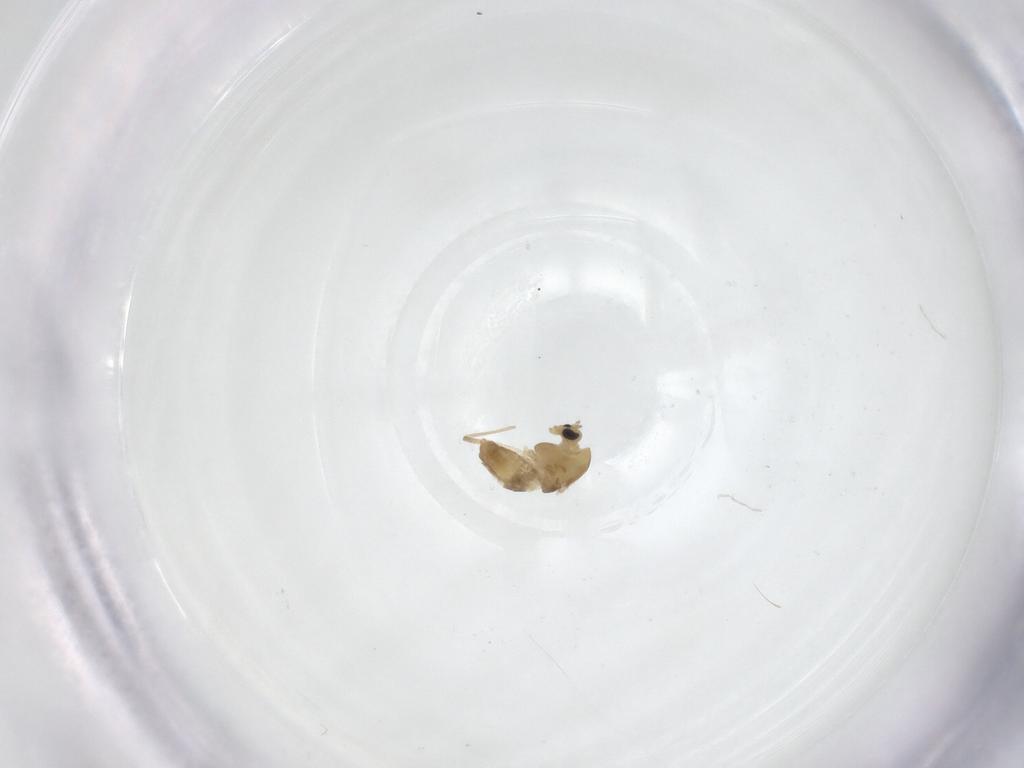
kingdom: Animalia
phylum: Arthropoda
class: Insecta
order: Diptera
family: Chironomidae
